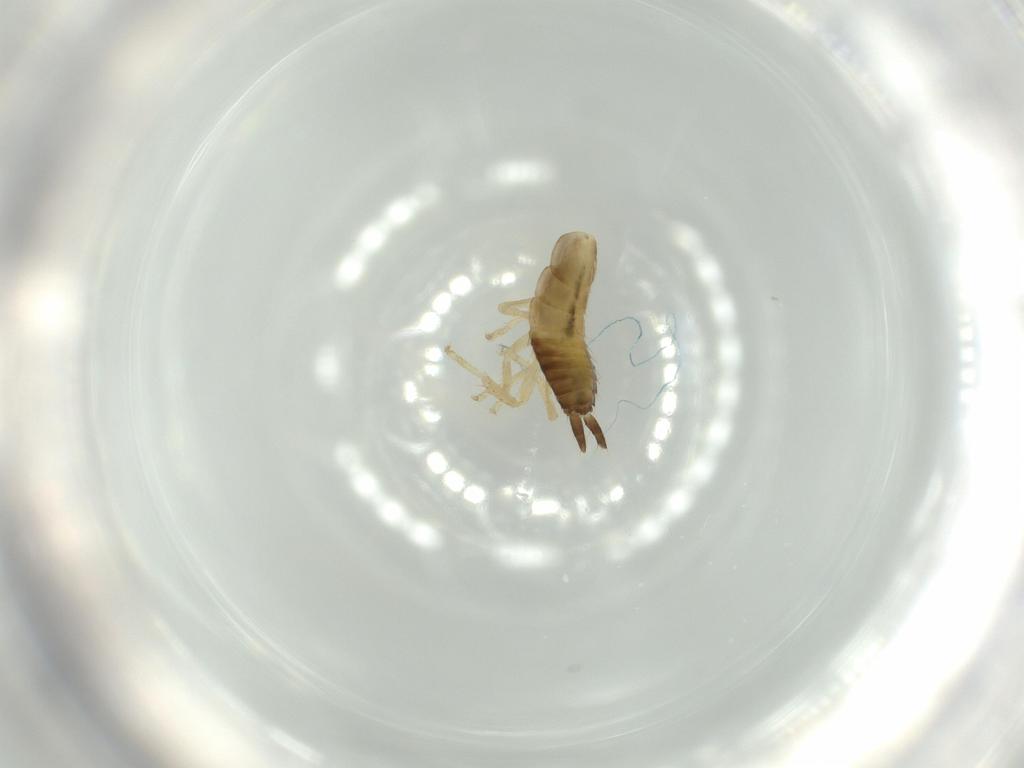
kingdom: Animalia
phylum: Arthropoda
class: Insecta
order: Blattodea
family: Ectobiidae
